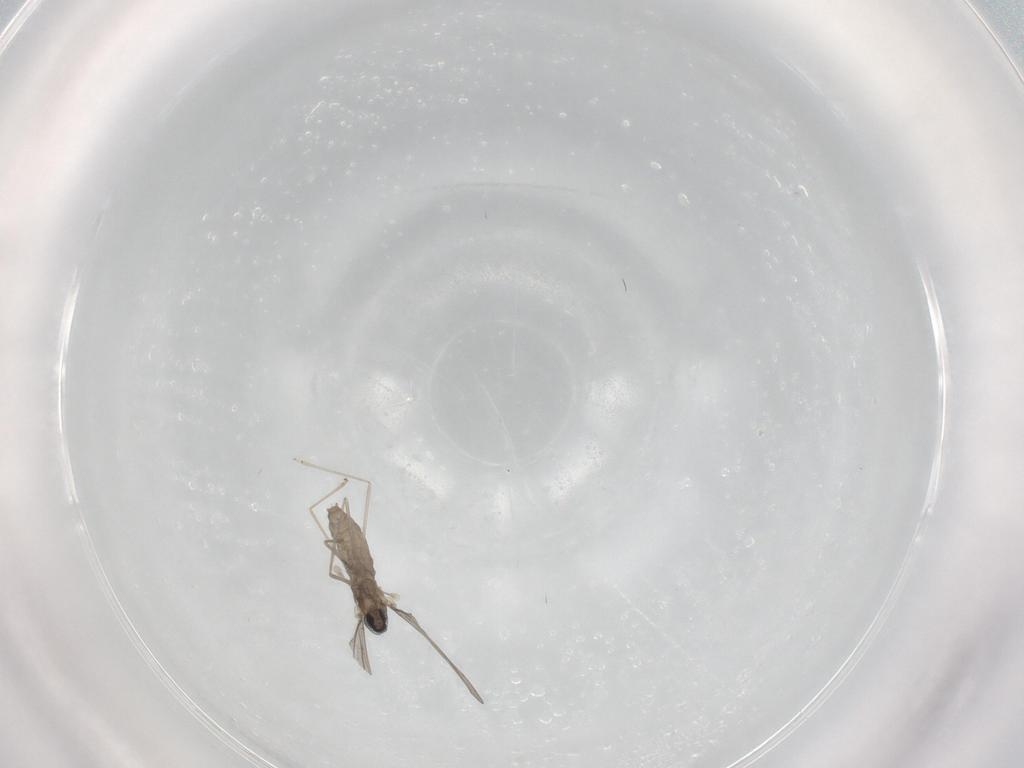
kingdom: Animalia
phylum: Arthropoda
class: Insecta
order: Diptera
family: Cecidomyiidae
